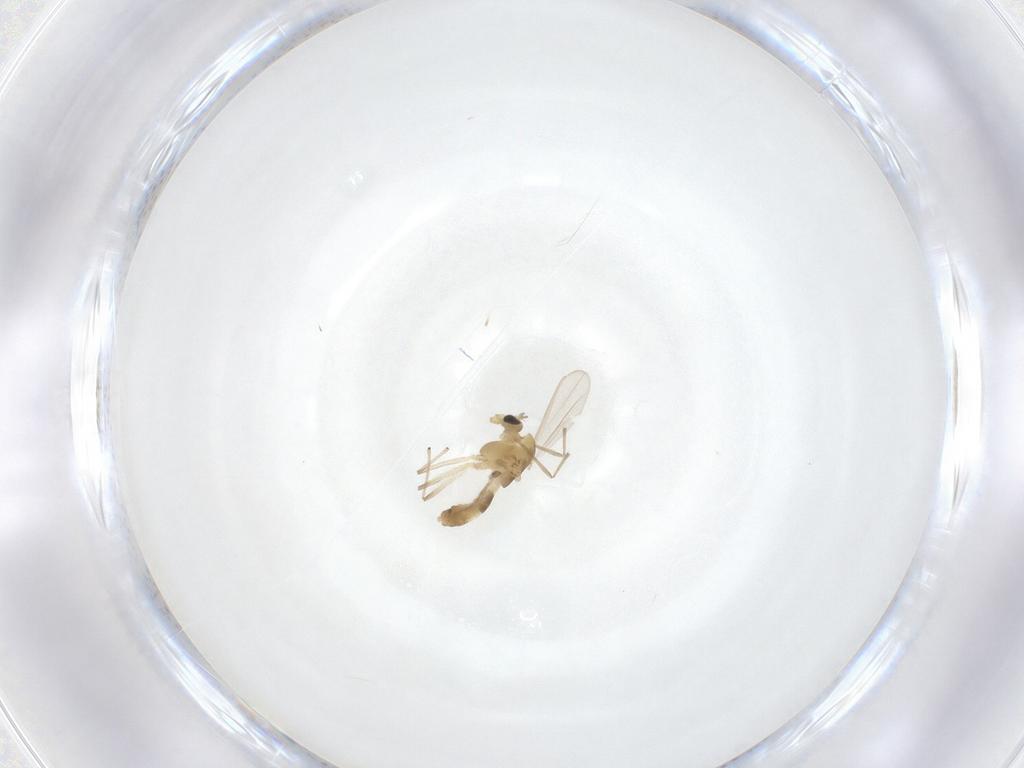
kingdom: Animalia
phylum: Arthropoda
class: Insecta
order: Diptera
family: Chironomidae
